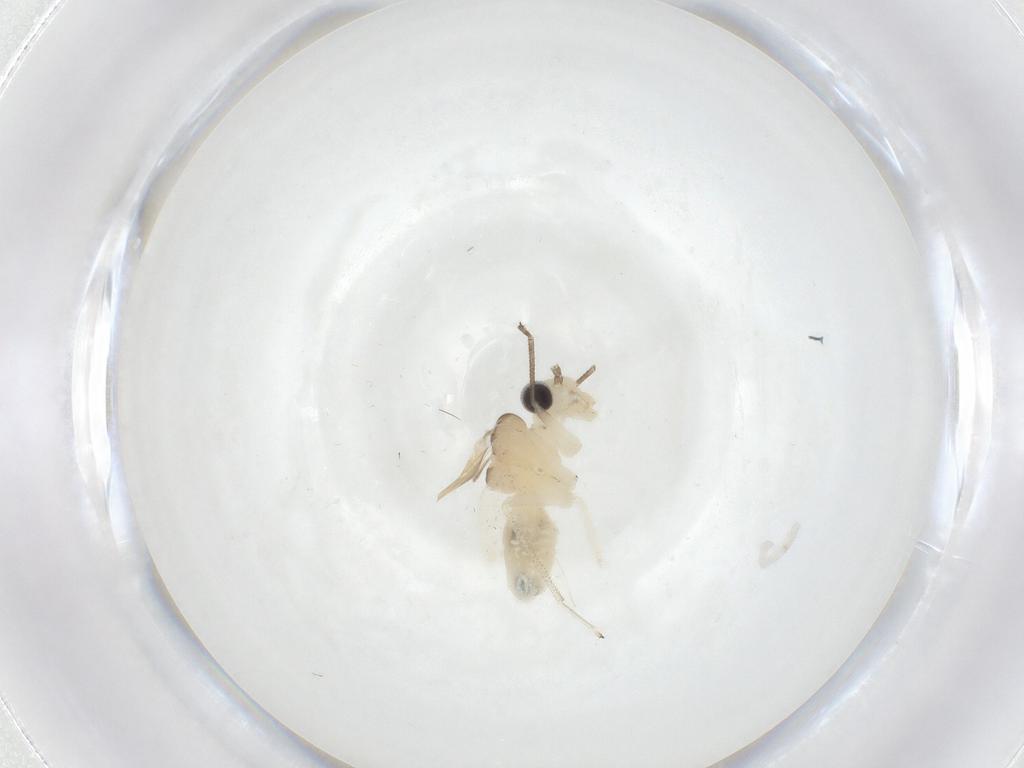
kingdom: Animalia
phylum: Arthropoda
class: Insecta
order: Psocodea
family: Lepidopsocidae
